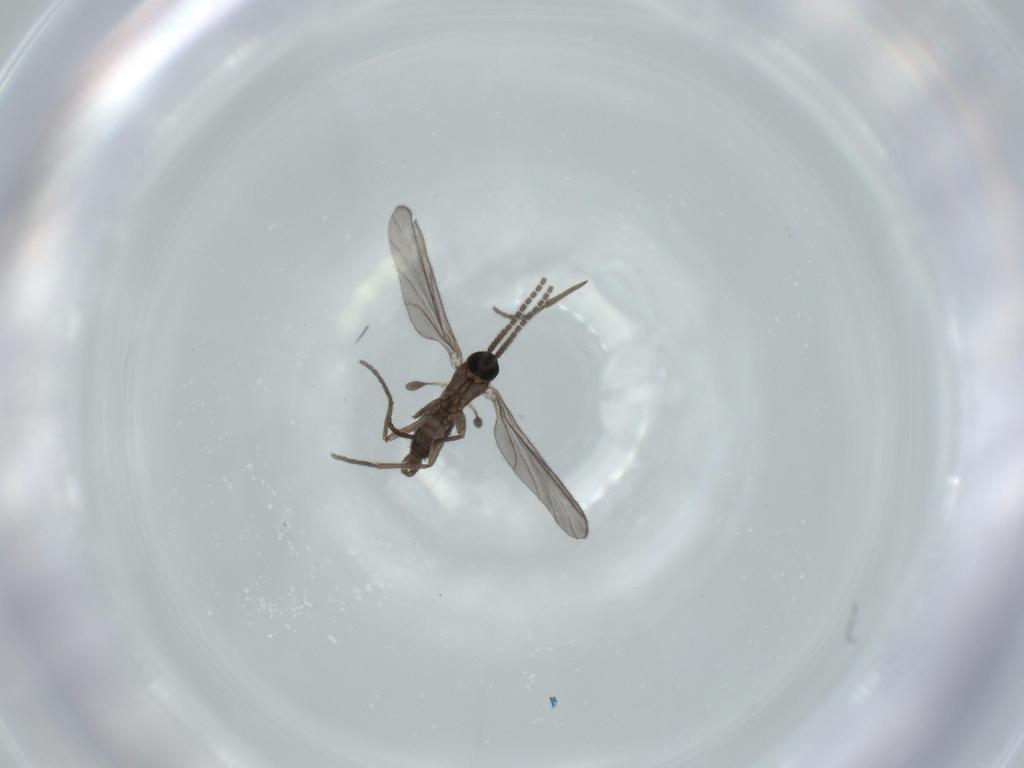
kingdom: Animalia
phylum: Arthropoda
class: Insecta
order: Diptera
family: Sciaridae
